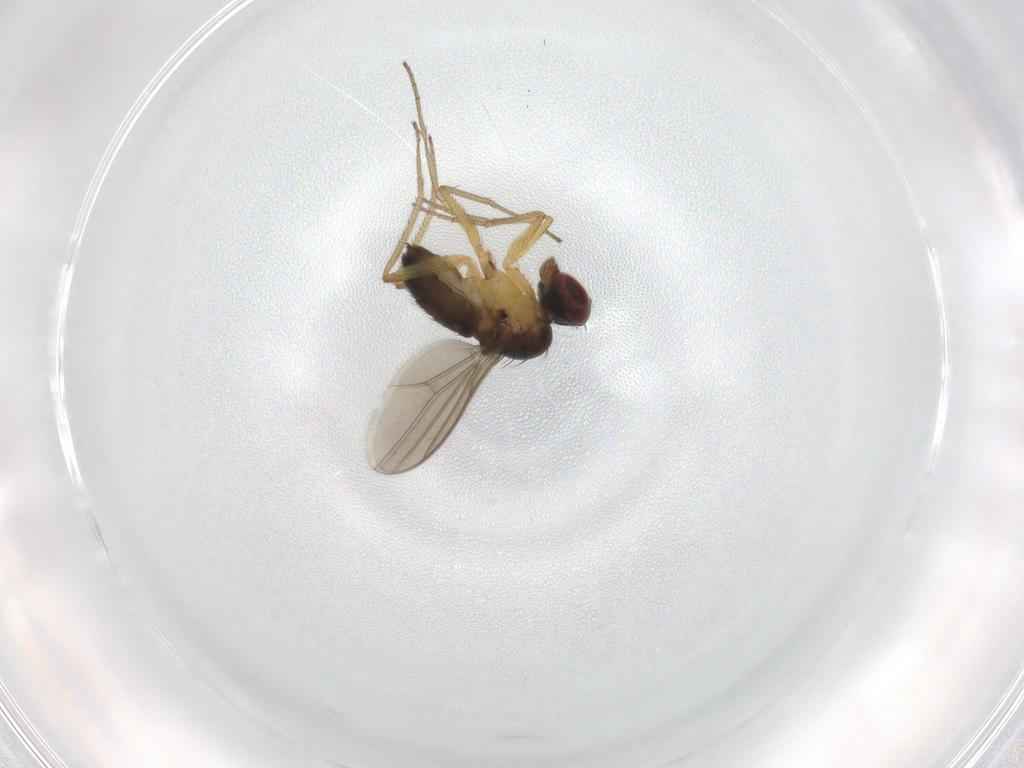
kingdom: Animalia
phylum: Arthropoda
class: Insecta
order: Diptera
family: Dolichopodidae
